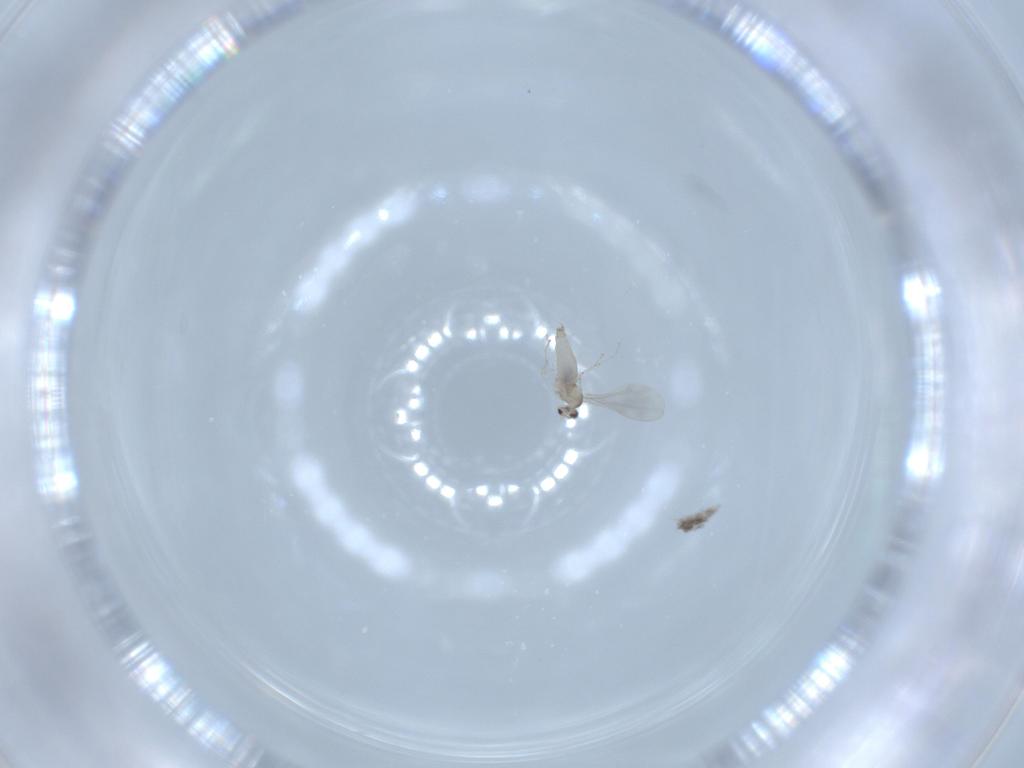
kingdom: Animalia
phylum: Arthropoda
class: Insecta
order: Diptera
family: Cecidomyiidae
